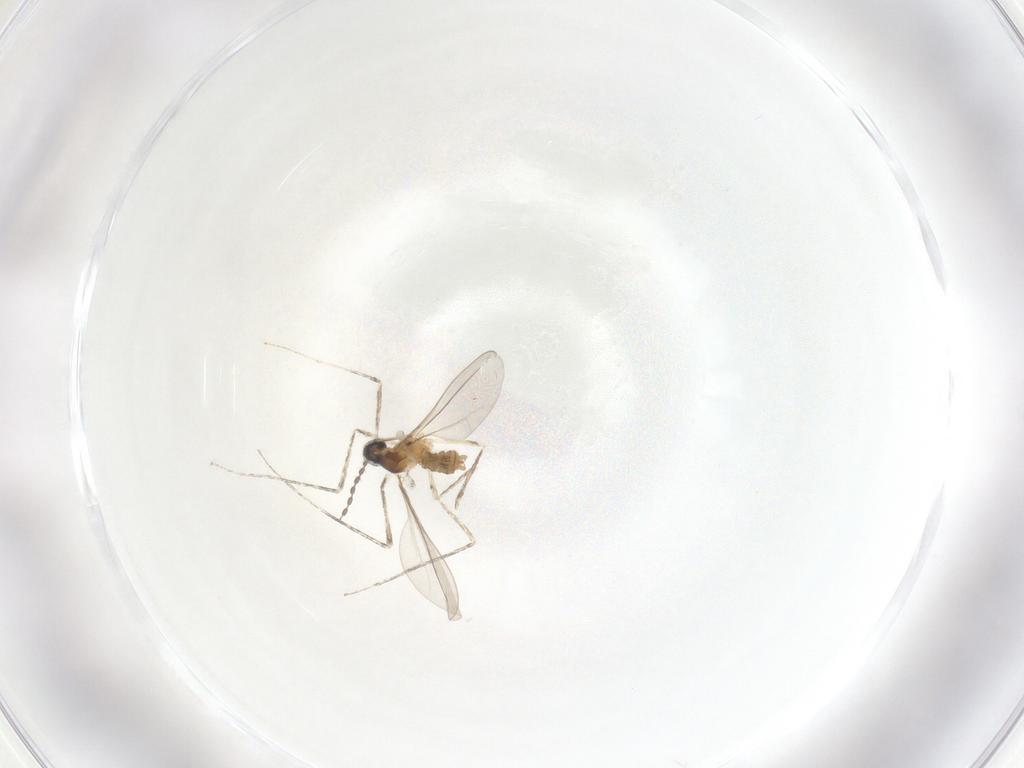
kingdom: Animalia
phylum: Arthropoda
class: Insecta
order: Diptera
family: Cecidomyiidae
